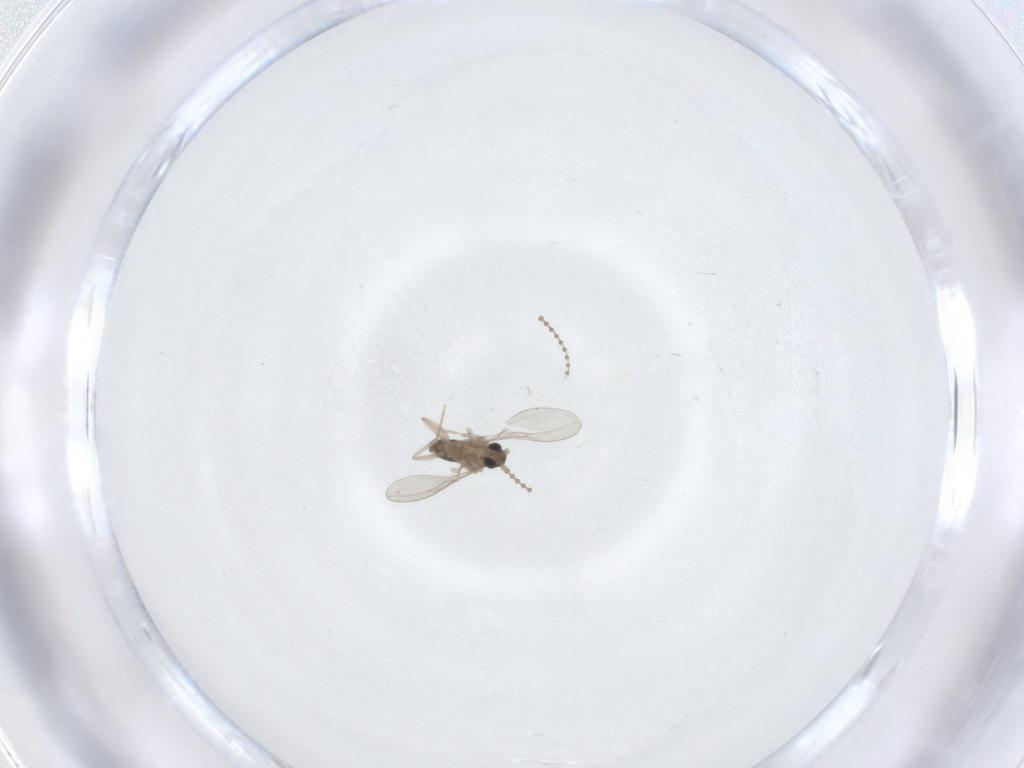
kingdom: Animalia
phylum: Arthropoda
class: Insecta
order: Diptera
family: Cecidomyiidae
